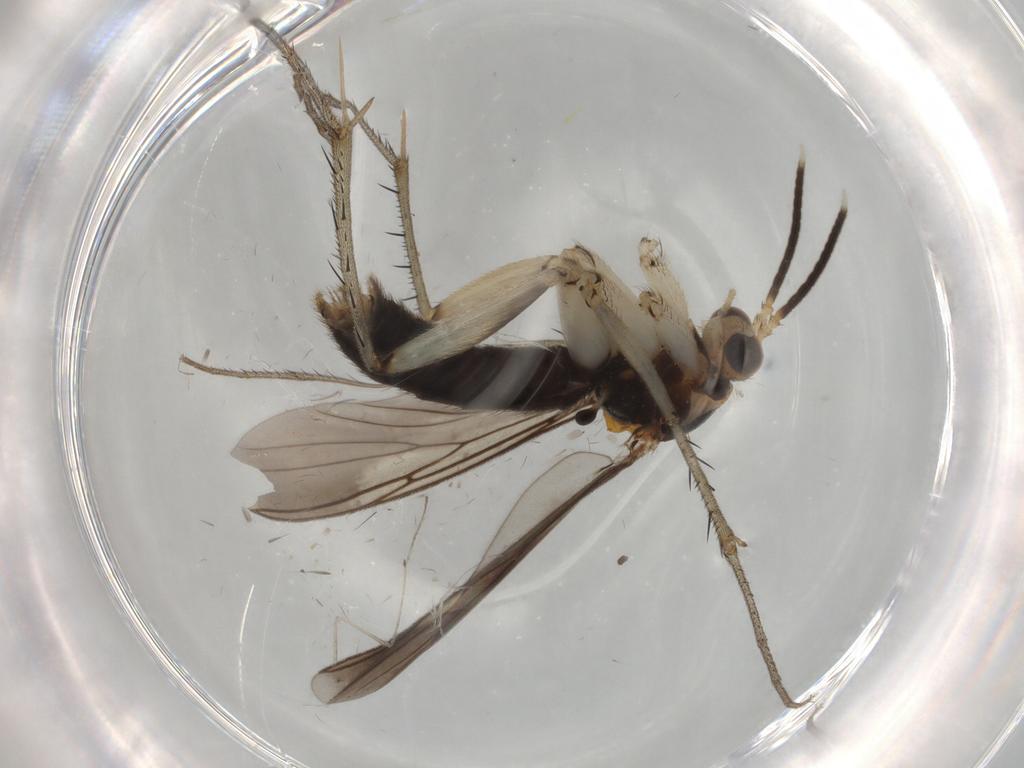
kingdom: Animalia
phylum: Arthropoda
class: Insecta
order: Diptera
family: Mycetophilidae
